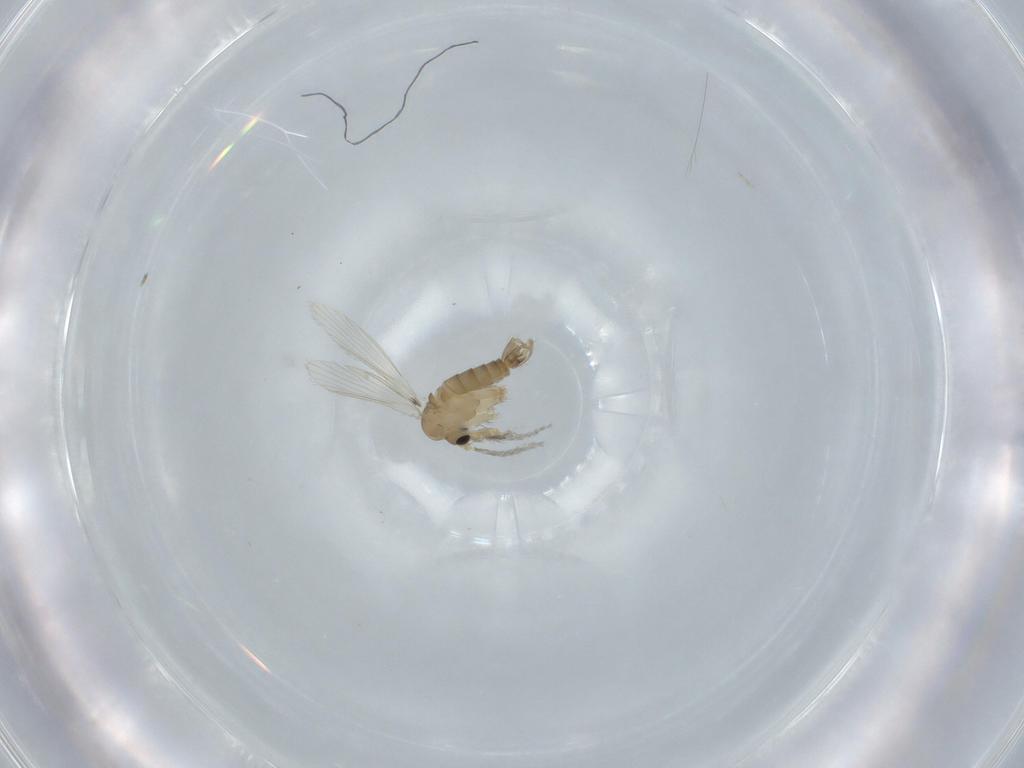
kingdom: Animalia
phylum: Arthropoda
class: Insecta
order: Diptera
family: Psychodidae
